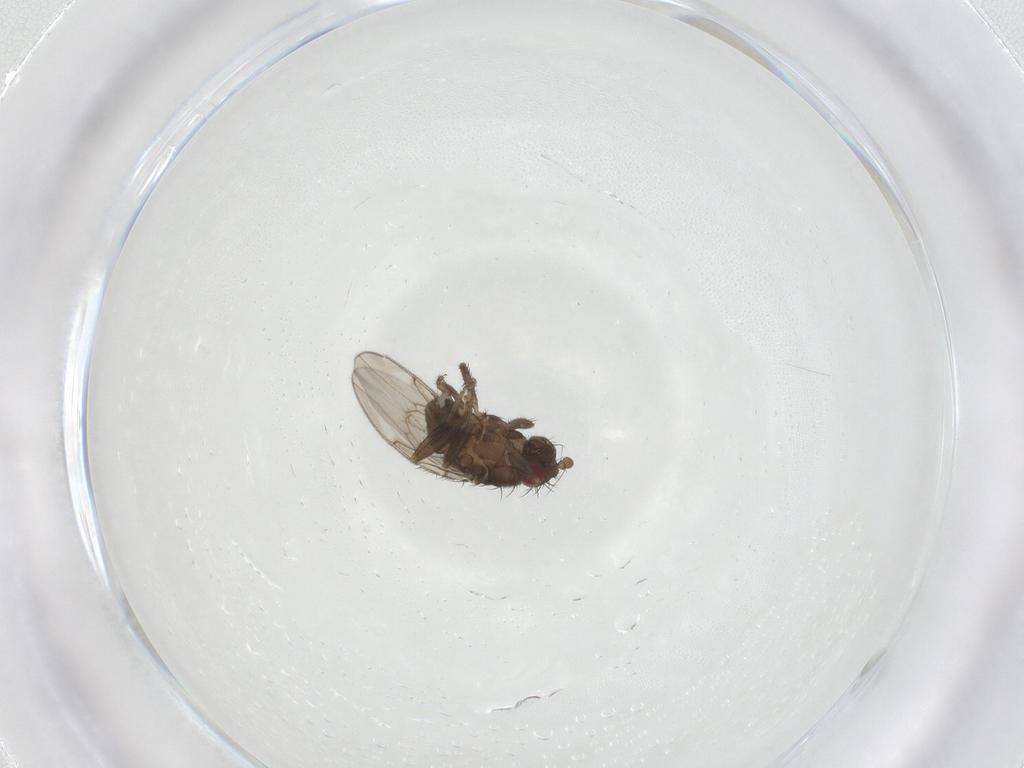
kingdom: Animalia
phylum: Arthropoda
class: Insecta
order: Diptera
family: Sphaeroceridae
